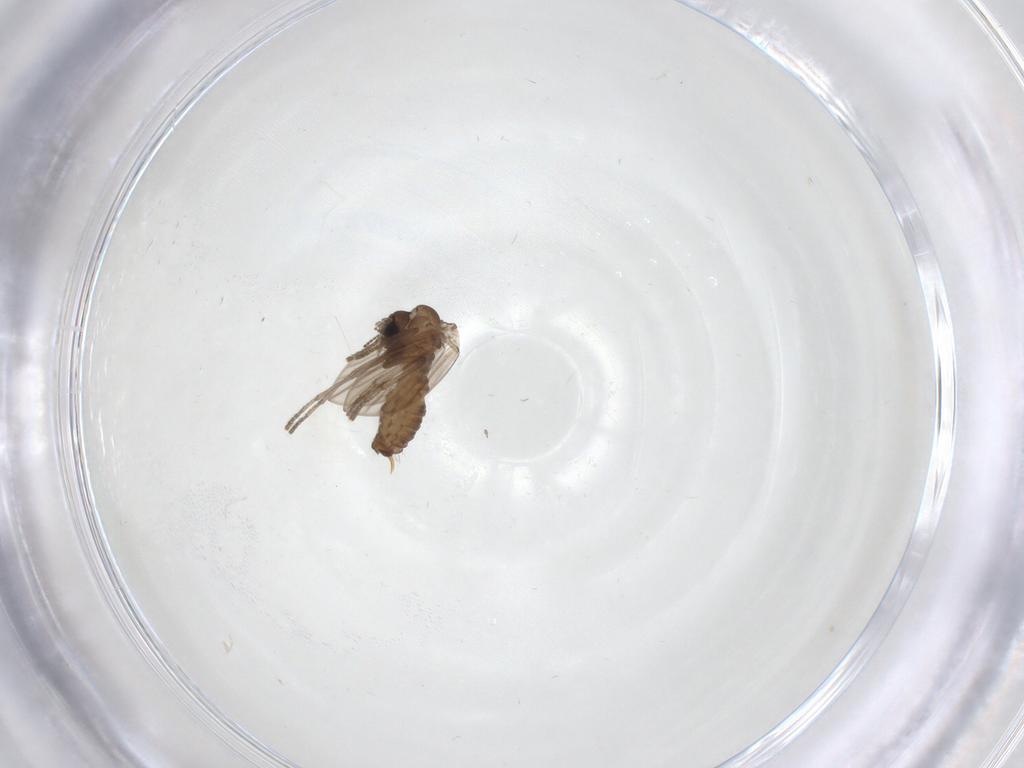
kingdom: Animalia
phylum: Arthropoda
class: Insecta
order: Diptera
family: Psychodidae
